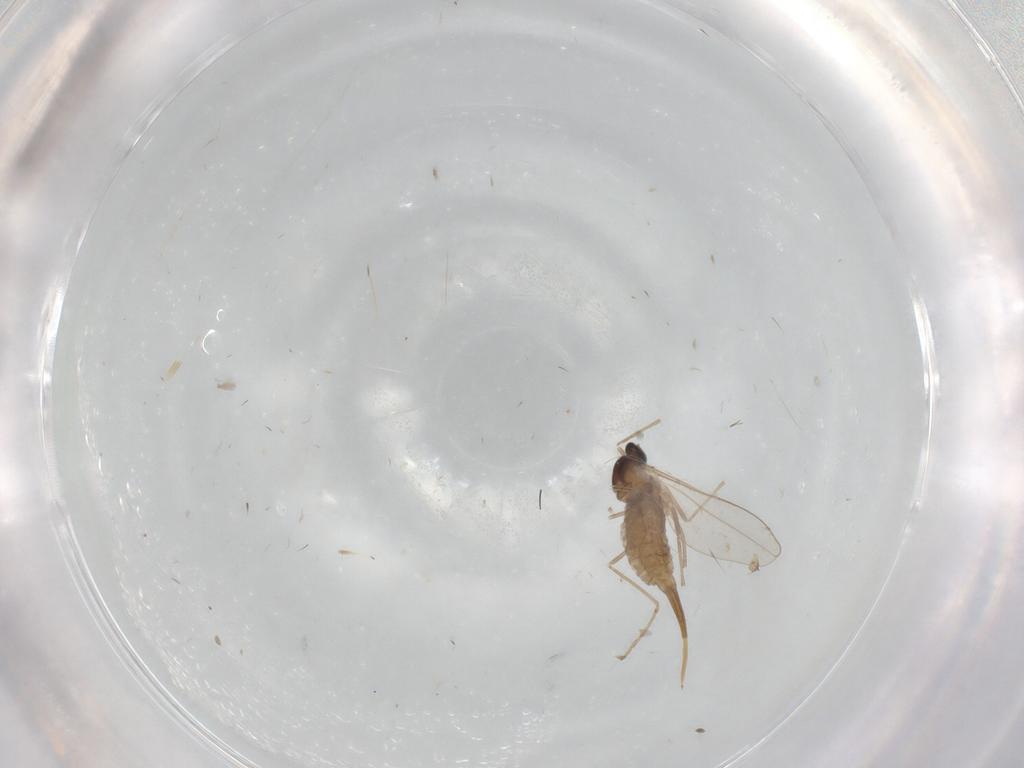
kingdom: Animalia
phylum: Arthropoda
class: Insecta
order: Diptera
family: Cecidomyiidae
